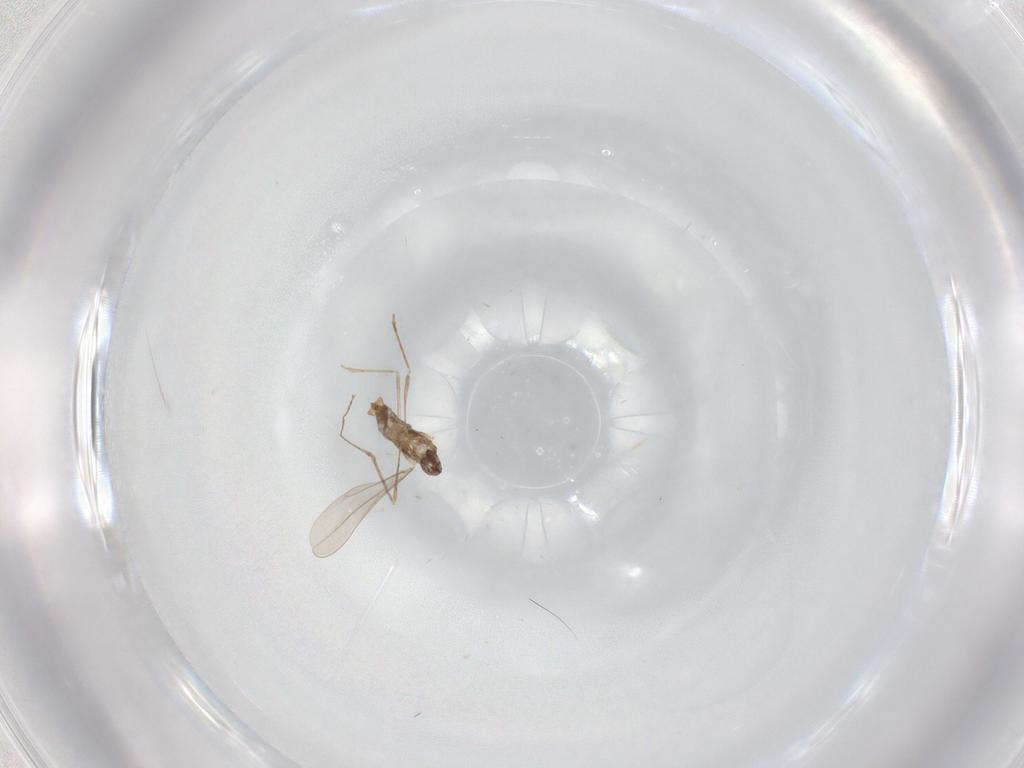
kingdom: Animalia
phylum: Arthropoda
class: Insecta
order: Diptera
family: Cecidomyiidae
